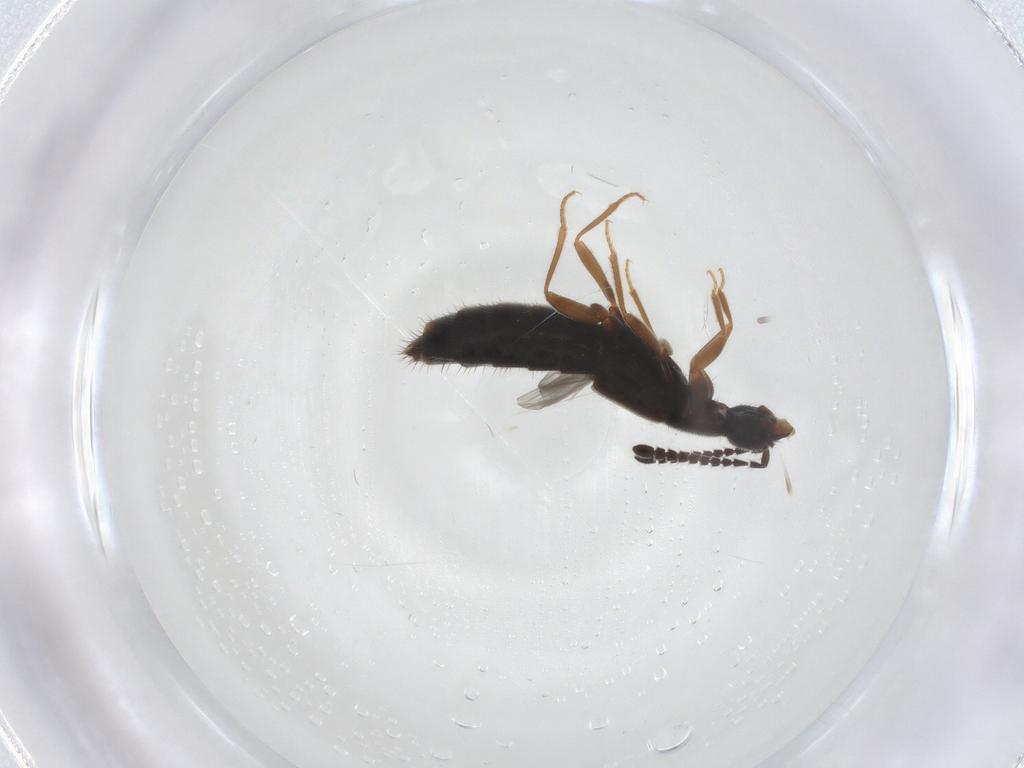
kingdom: Animalia
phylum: Arthropoda
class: Insecta
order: Coleoptera
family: Staphylinidae
